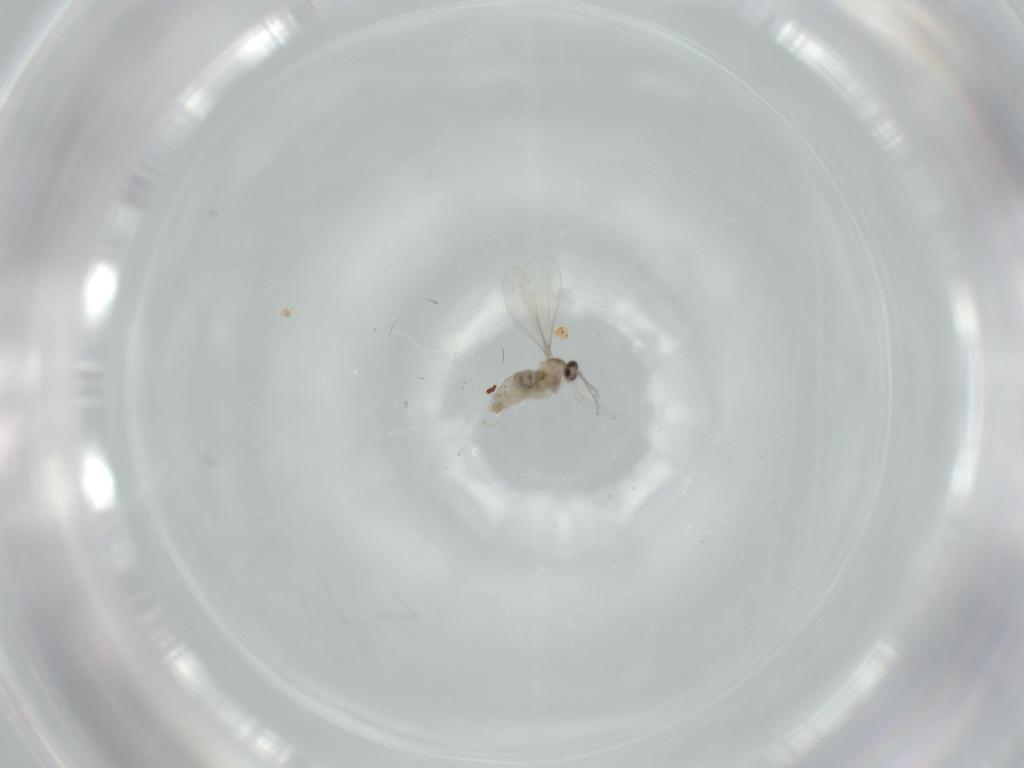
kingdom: Animalia
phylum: Arthropoda
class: Insecta
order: Diptera
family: Cecidomyiidae
